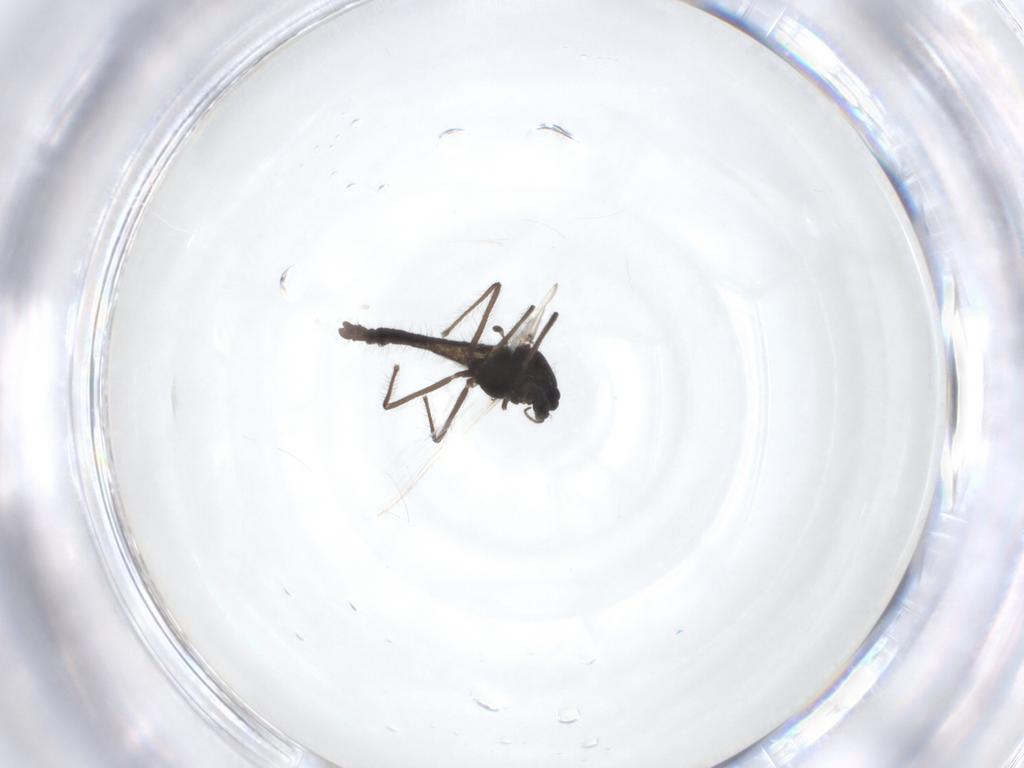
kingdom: Animalia
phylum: Arthropoda
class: Insecta
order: Diptera
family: Chironomidae
